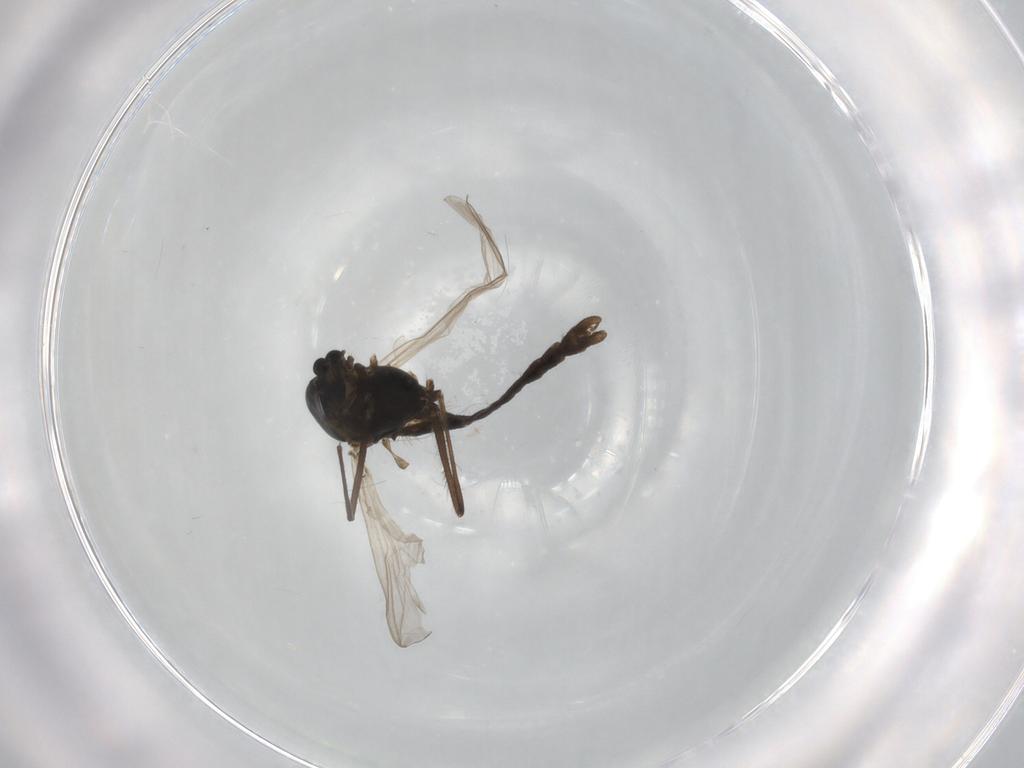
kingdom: Animalia
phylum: Arthropoda
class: Insecta
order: Diptera
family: Chironomidae
